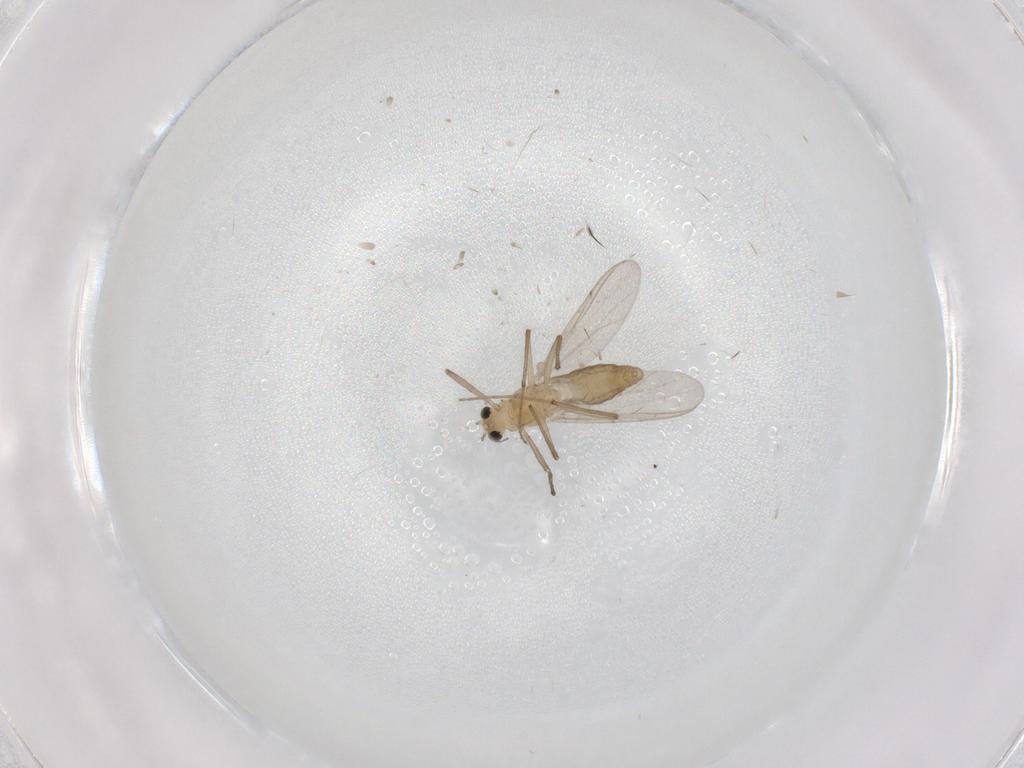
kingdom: Animalia
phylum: Arthropoda
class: Insecta
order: Diptera
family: Chironomidae
